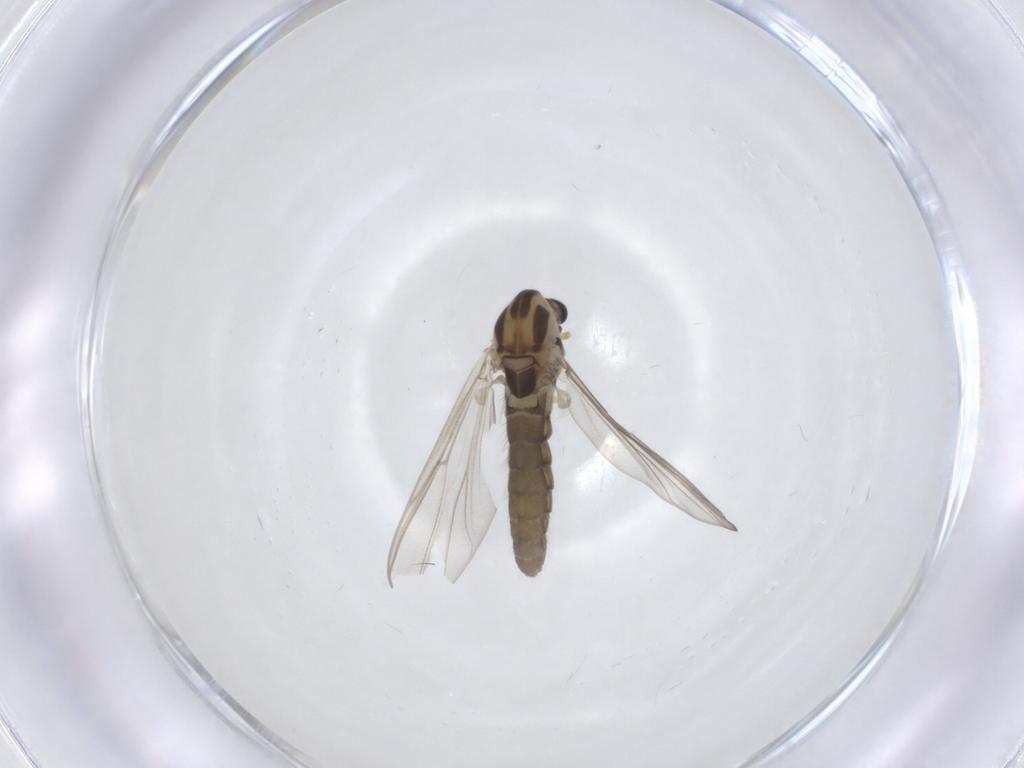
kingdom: Animalia
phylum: Arthropoda
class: Insecta
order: Diptera
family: Chironomidae
